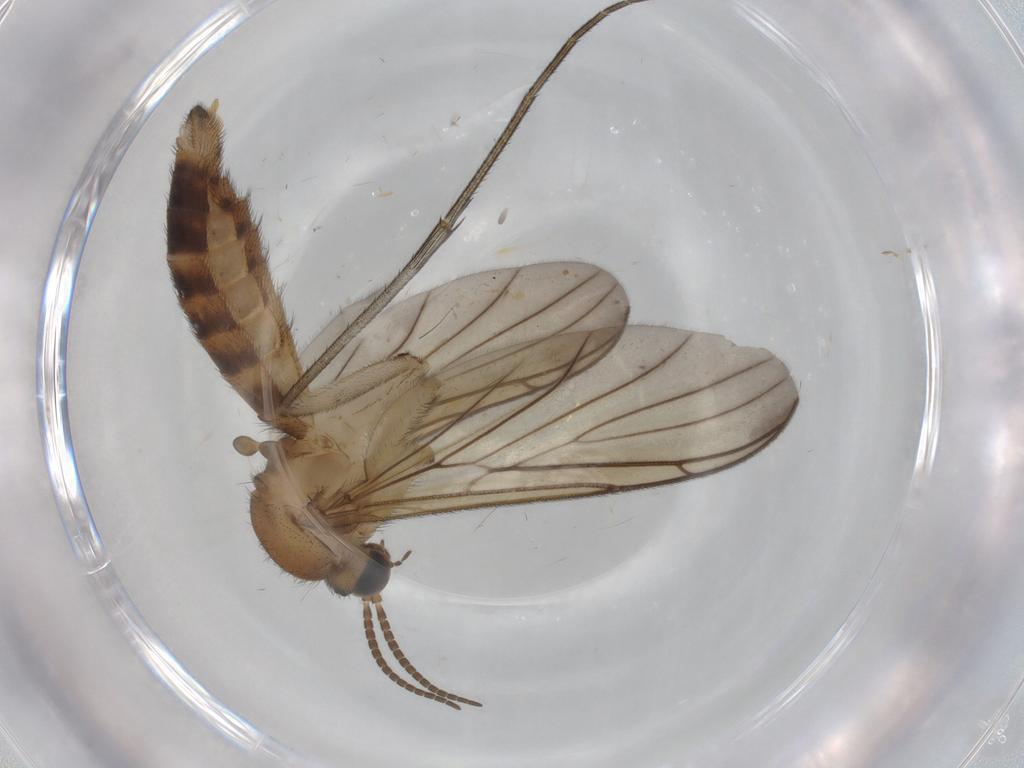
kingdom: Animalia
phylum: Arthropoda
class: Insecta
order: Diptera
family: Keroplatidae
